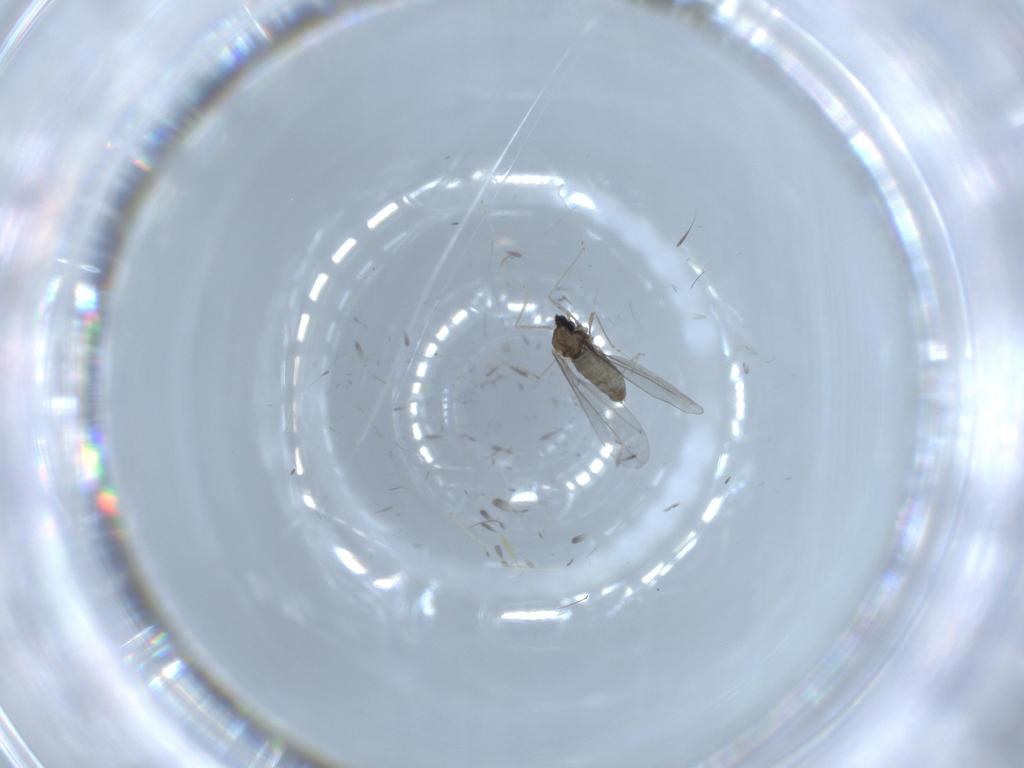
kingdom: Animalia
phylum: Arthropoda
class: Insecta
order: Diptera
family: Cecidomyiidae
